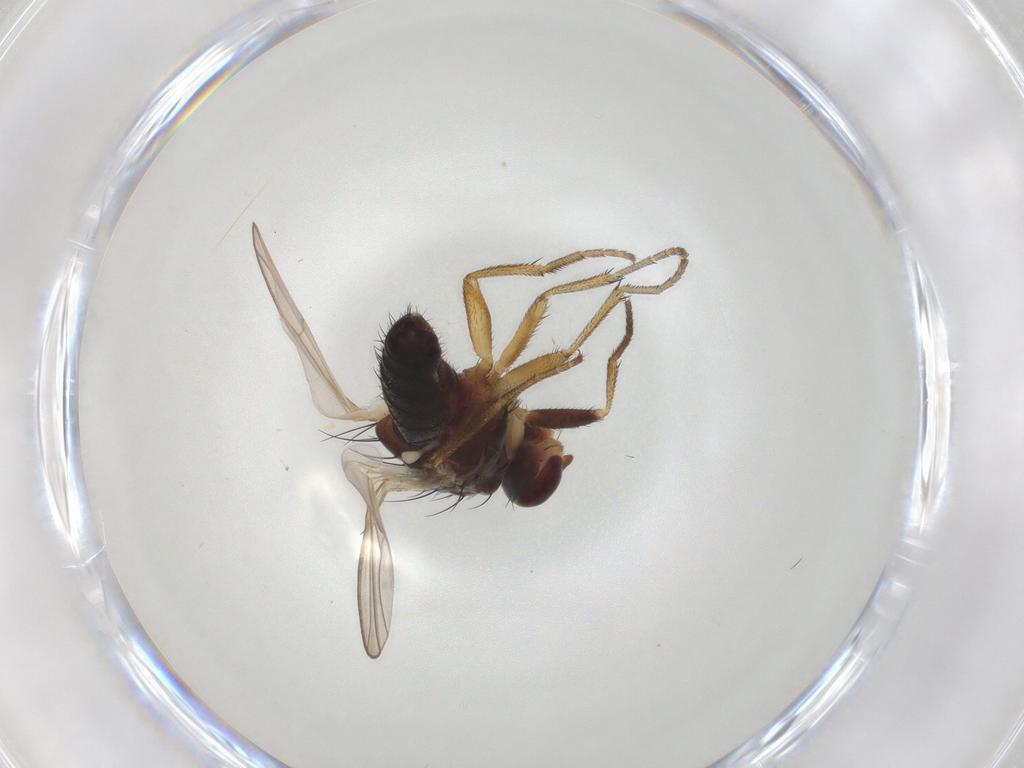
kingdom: Animalia
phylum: Arthropoda
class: Insecta
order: Diptera
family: Heleomyzidae
